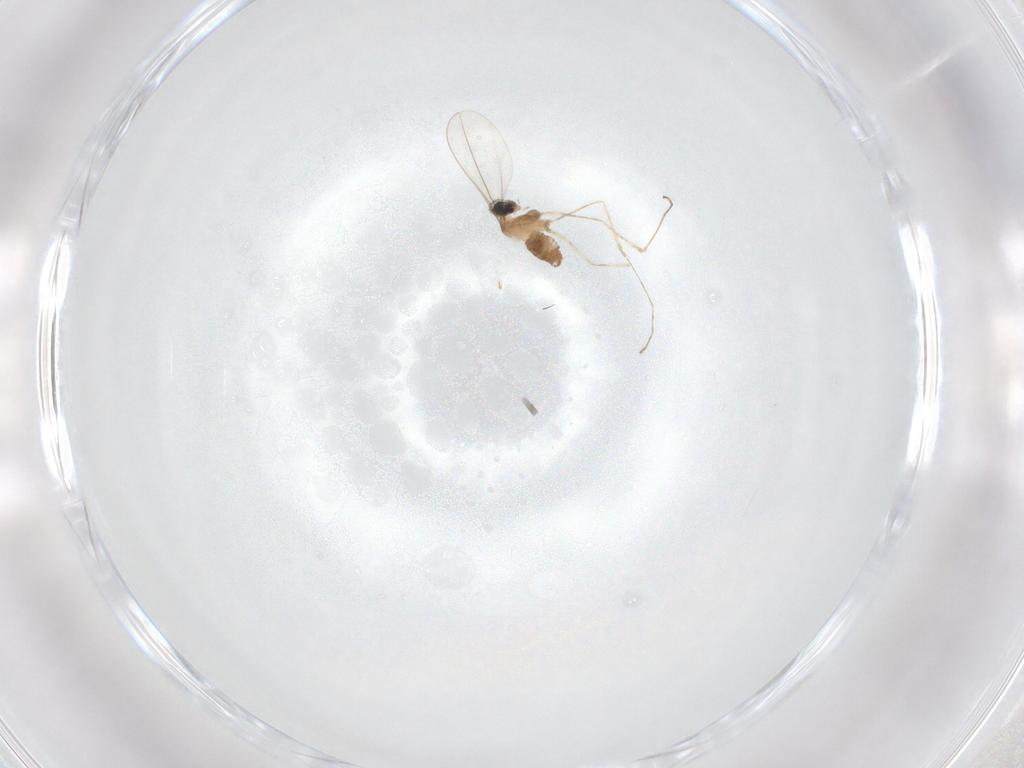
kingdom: Animalia
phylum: Arthropoda
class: Insecta
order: Diptera
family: Cecidomyiidae
